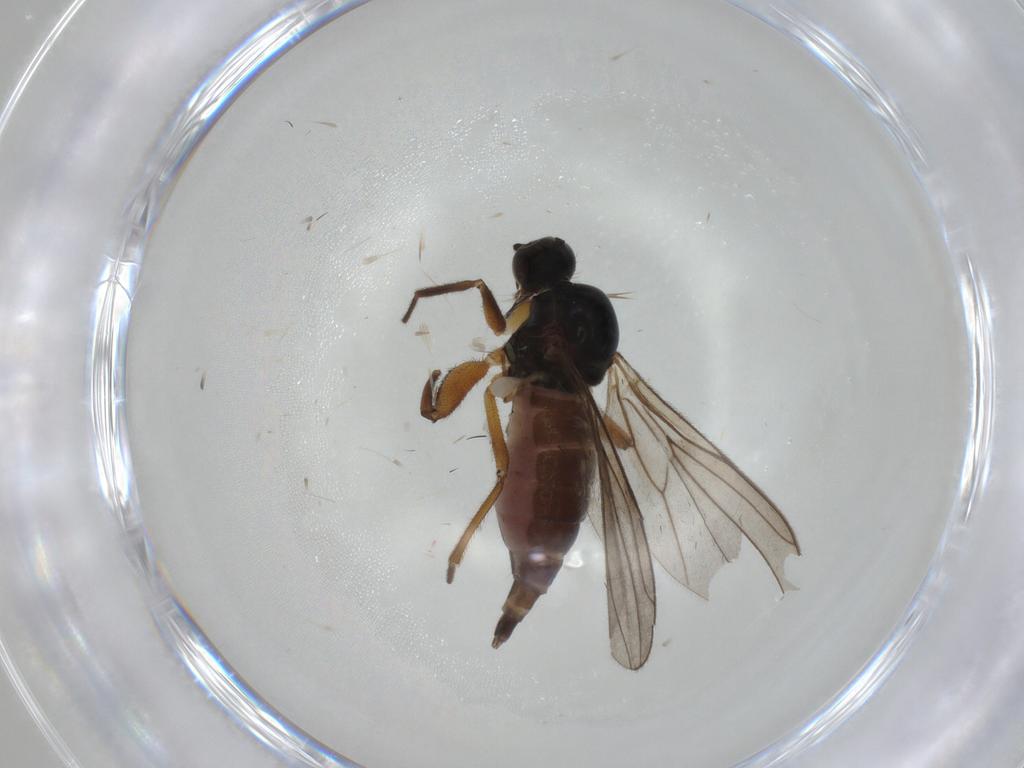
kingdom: Animalia
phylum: Arthropoda
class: Insecta
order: Diptera
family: Hybotidae
